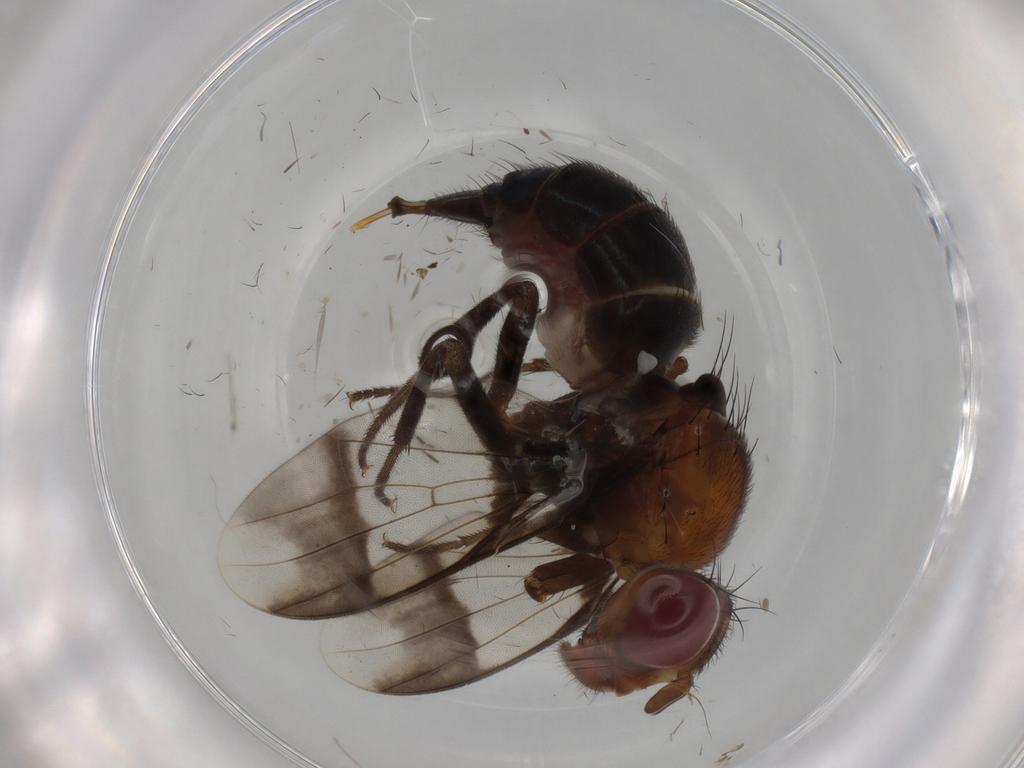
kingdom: Animalia
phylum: Arthropoda
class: Insecta
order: Diptera
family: Richardiidae
